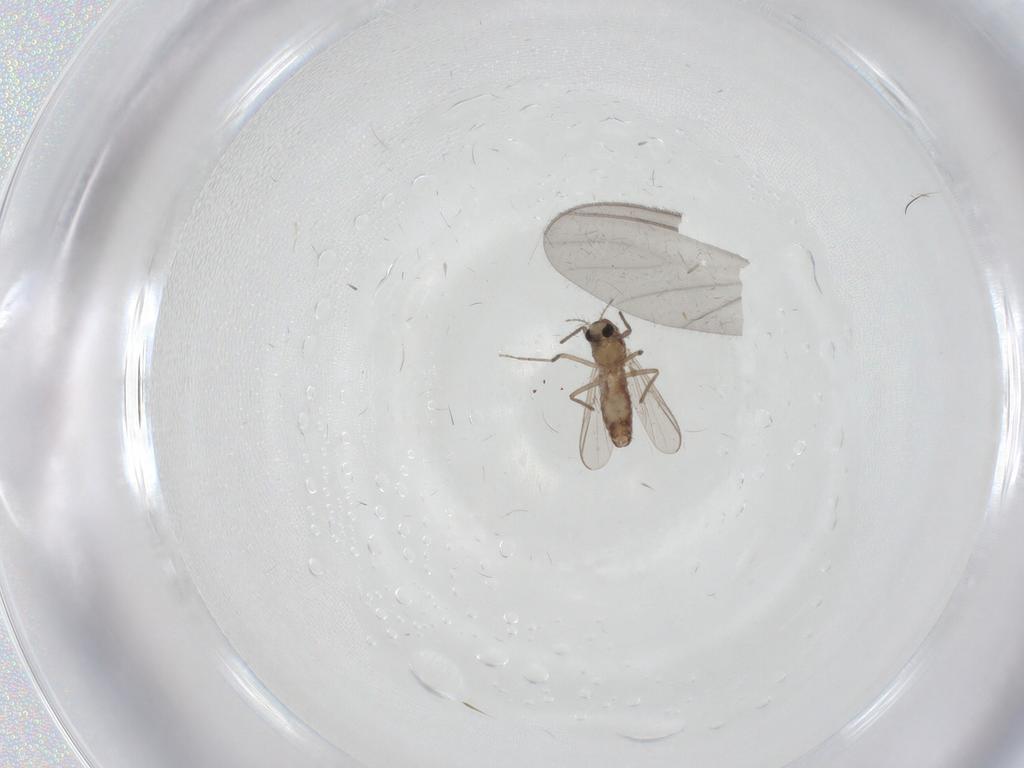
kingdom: Animalia
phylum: Arthropoda
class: Insecta
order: Diptera
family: Chironomidae
